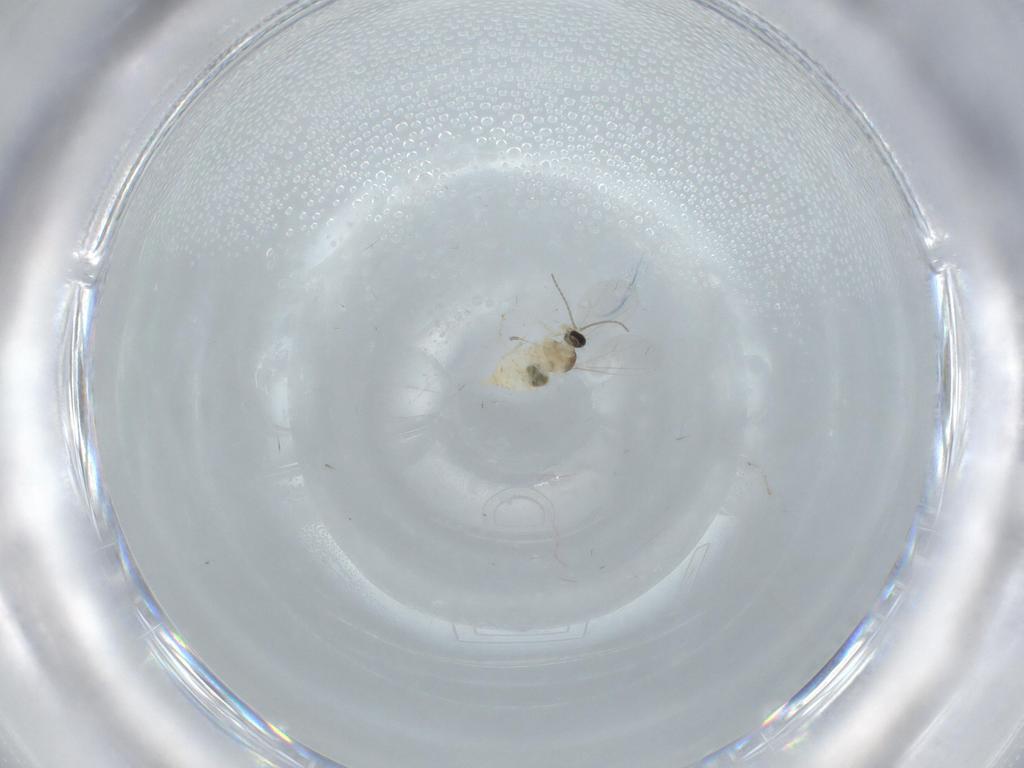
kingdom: Animalia
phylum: Arthropoda
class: Insecta
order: Diptera
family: Cecidomyiidae
